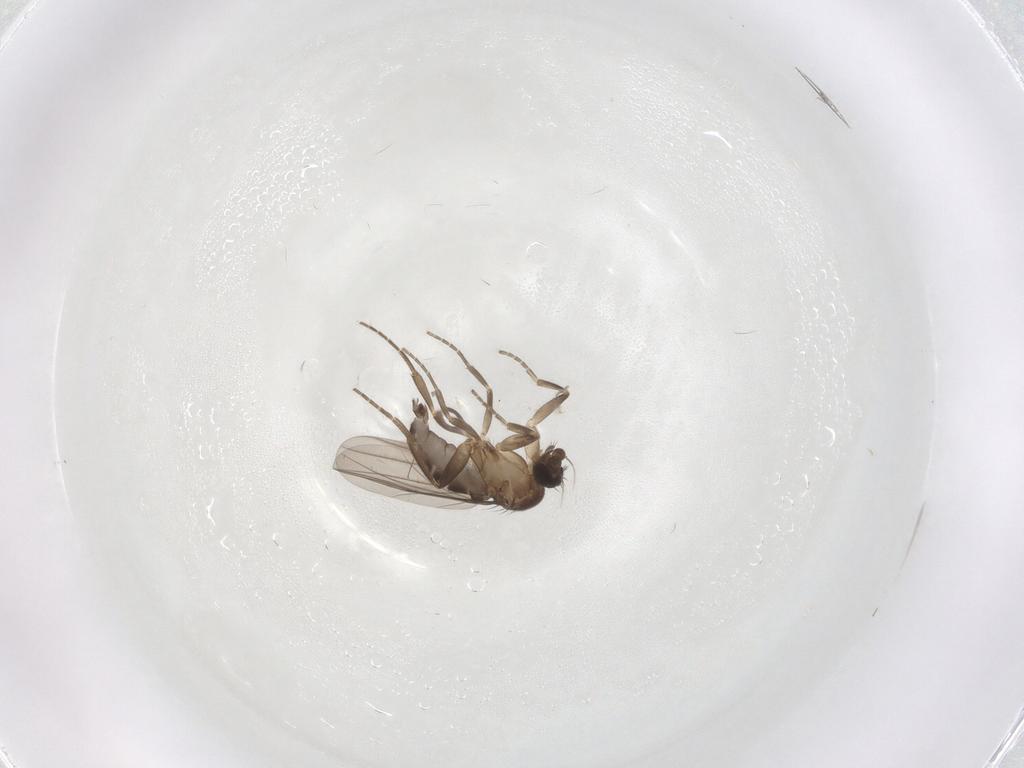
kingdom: Animalia
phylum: Arthropoda
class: Insecta
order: Diptera
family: Phoridae
